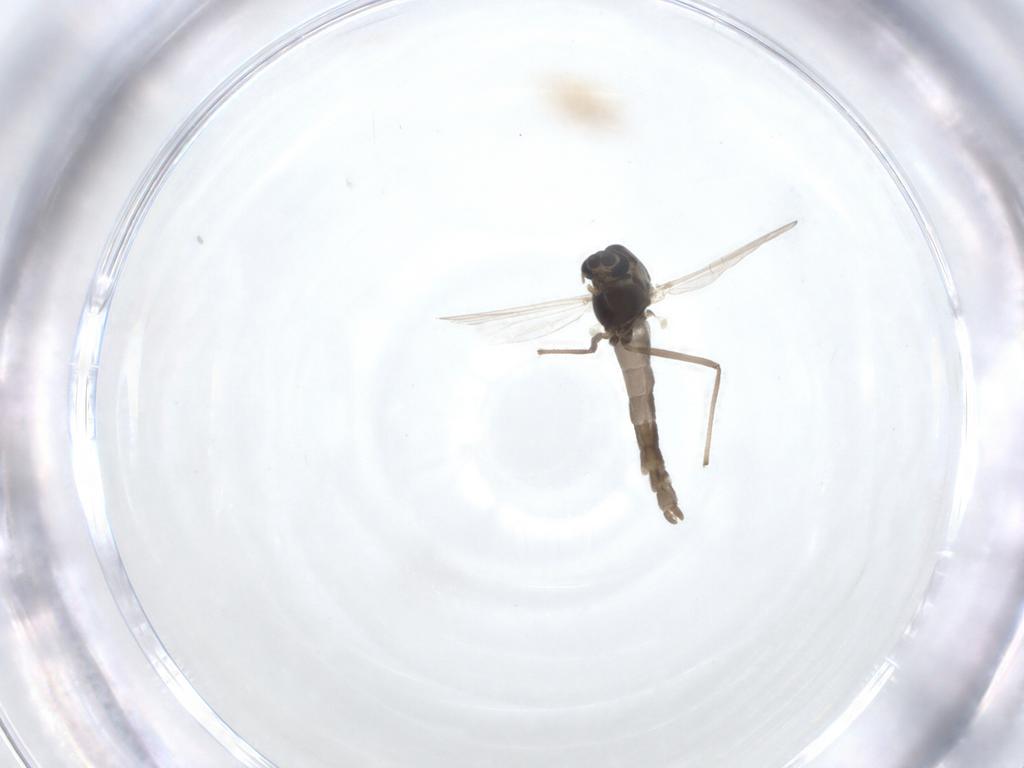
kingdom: Animalia
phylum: Arthropoda
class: Insecta
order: Diptera
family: Chironomidae
